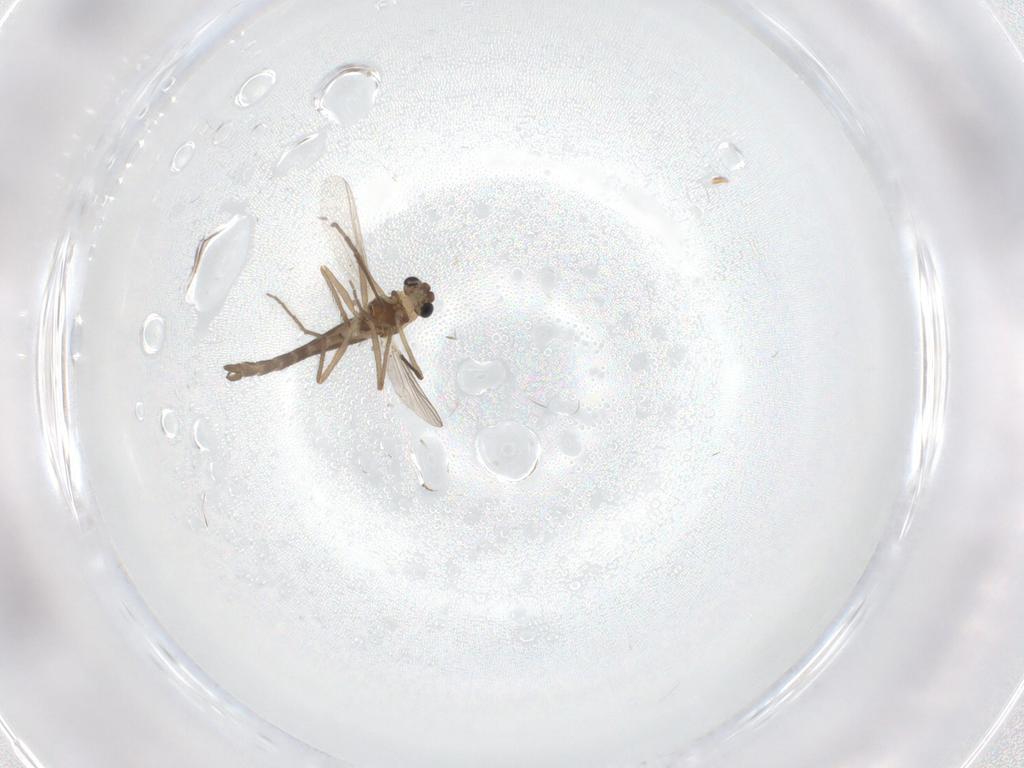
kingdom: Animalia
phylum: Arthropoda
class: Insecta
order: Diptera
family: Chironomidae
